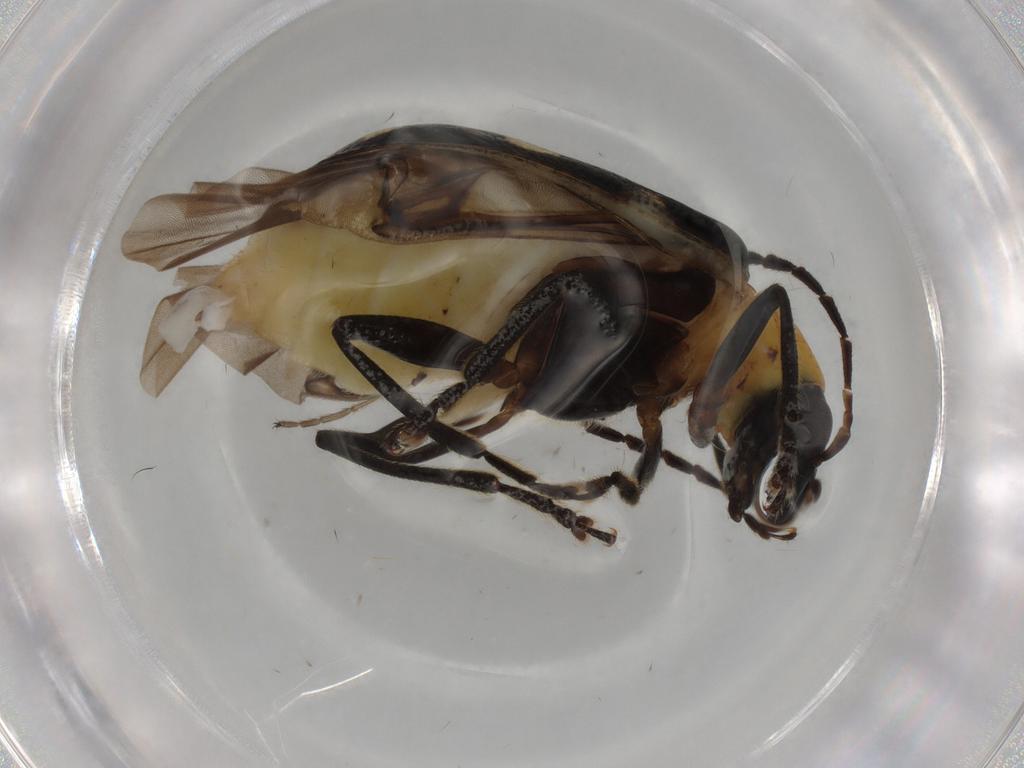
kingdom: Animalia
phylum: Arthropoda
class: Insecta
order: Coleoptera
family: Chrysomelidae
